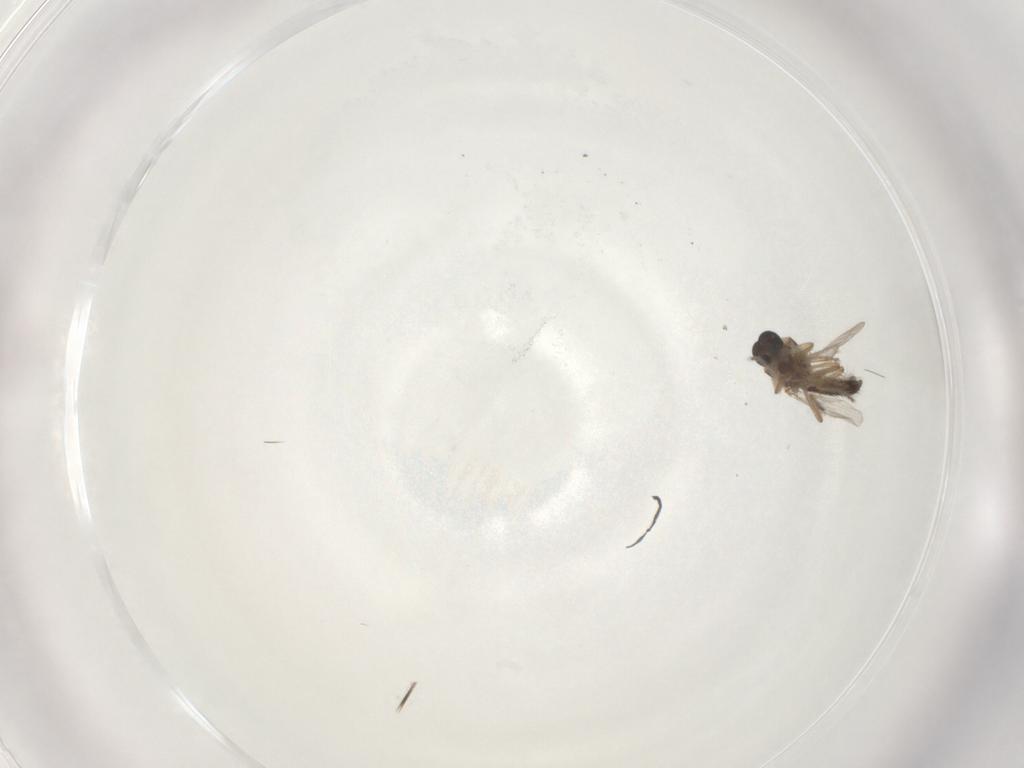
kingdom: Animalia
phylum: Arthropoda
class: Insecta
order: Diptera
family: Ceratopogonidae
